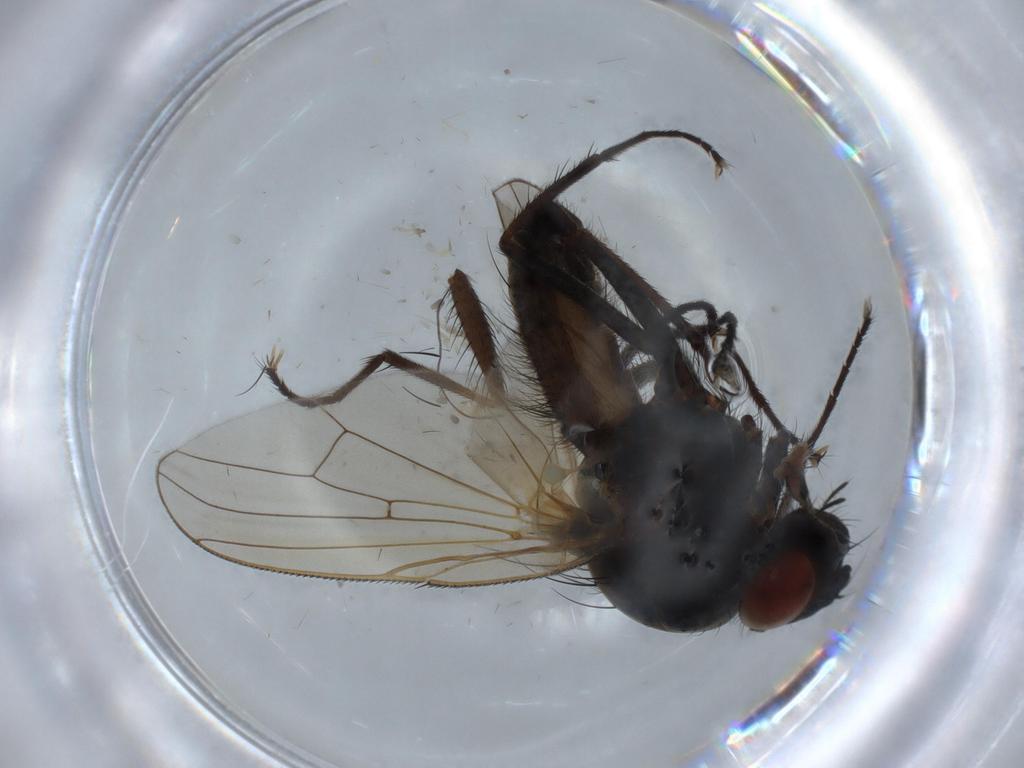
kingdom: Animalia
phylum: Arthropoda
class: Insecta
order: Diptera
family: Anthomyiidae
